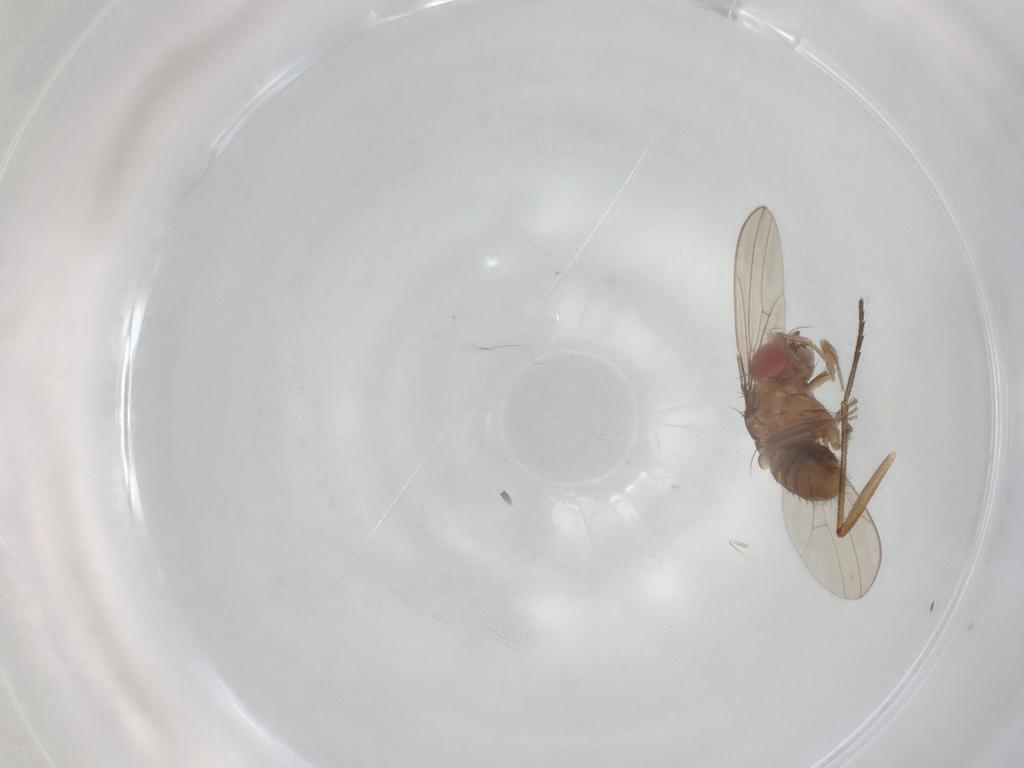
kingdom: Animalia
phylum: Arthropoda
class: Insecta
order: Diptera
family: Sciaridae
